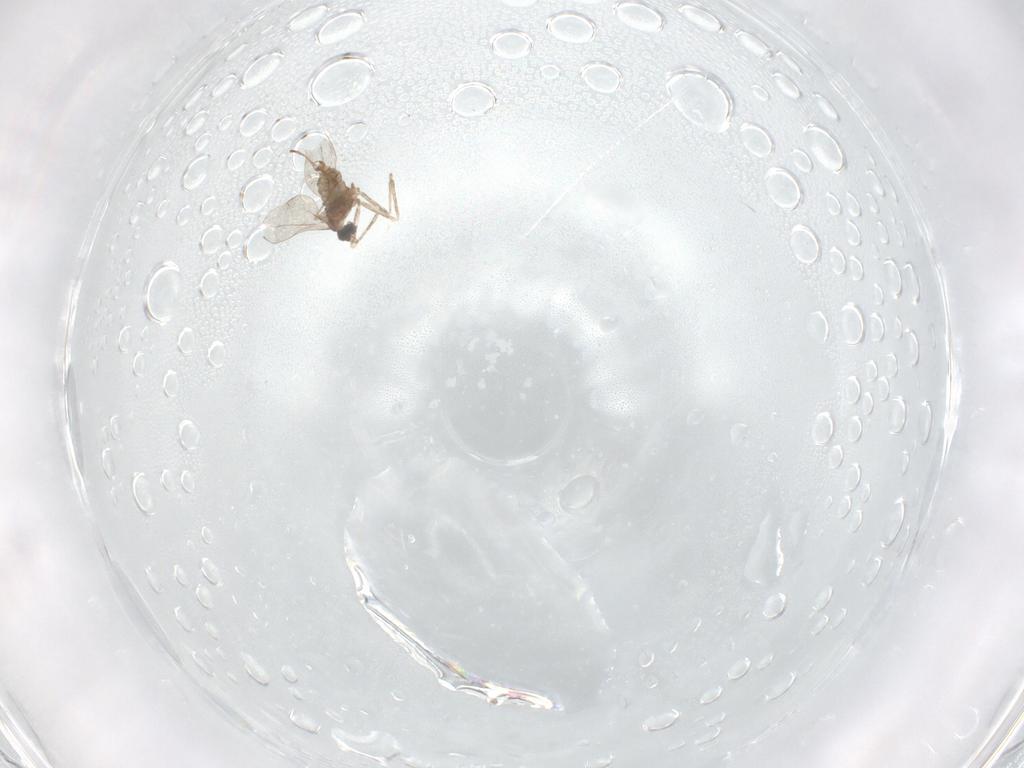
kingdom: Animalia
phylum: Arthropoda
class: Insecta
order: Diptera
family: Cecidomyiidae
